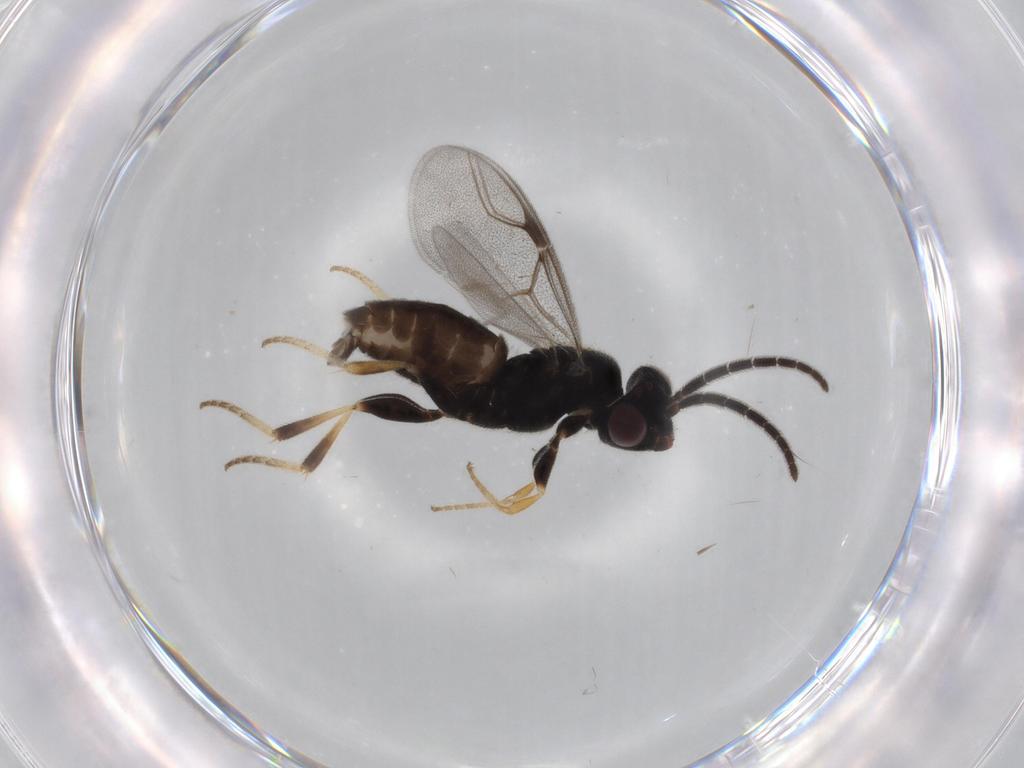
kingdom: Animalia
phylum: Arthropoda
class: Insecta
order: Hymenoptera
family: Dryinidae
